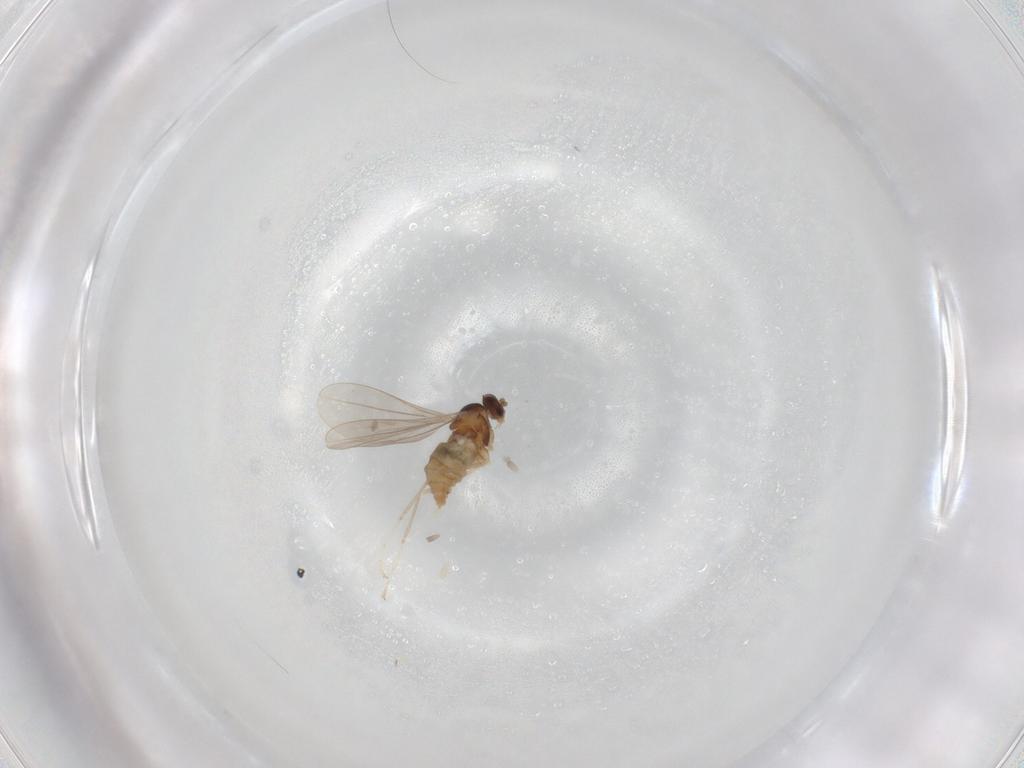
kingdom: Animalia
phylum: Arthropoda
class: Insecta
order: Diptera
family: Cecidomyiidae
